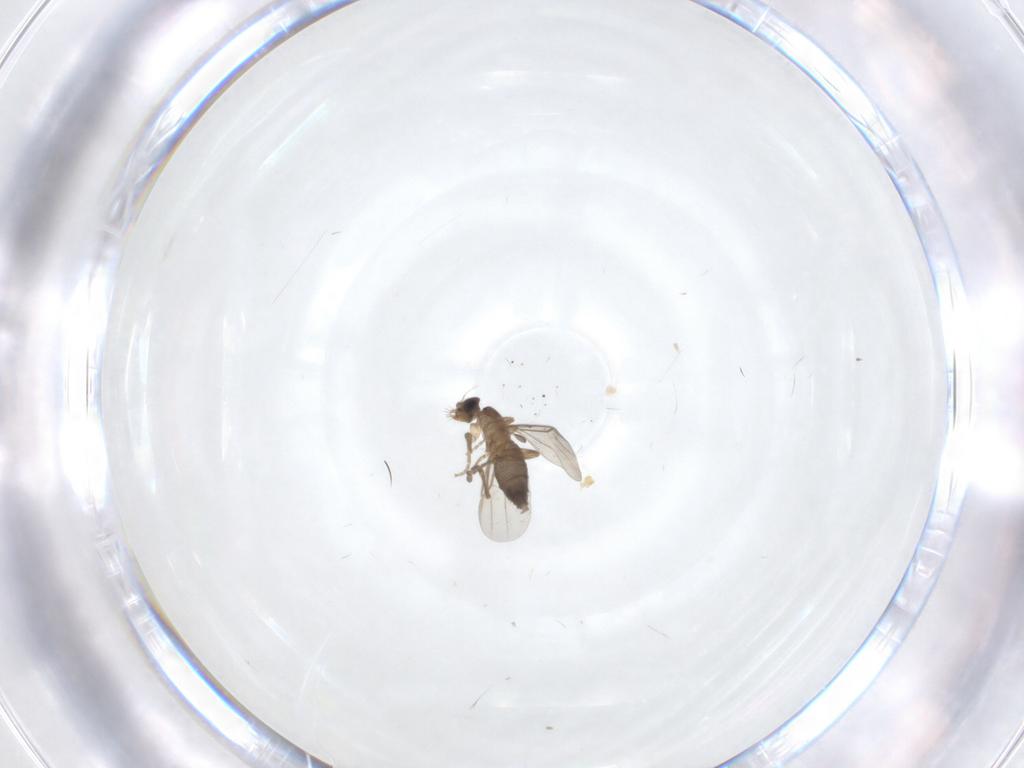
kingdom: Animalia
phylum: Arthropoda
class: Insecta
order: Diptera
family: Phoridae
